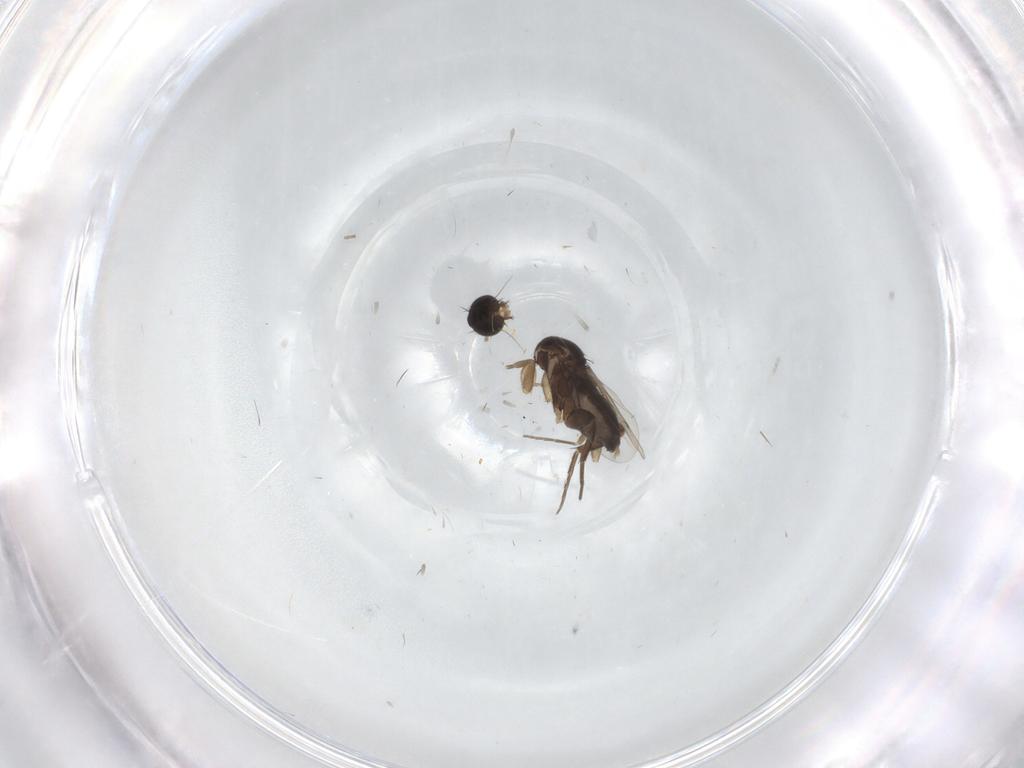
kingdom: Animalia
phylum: Arthropoda
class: Insecta
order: Diptera
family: Phoridae
